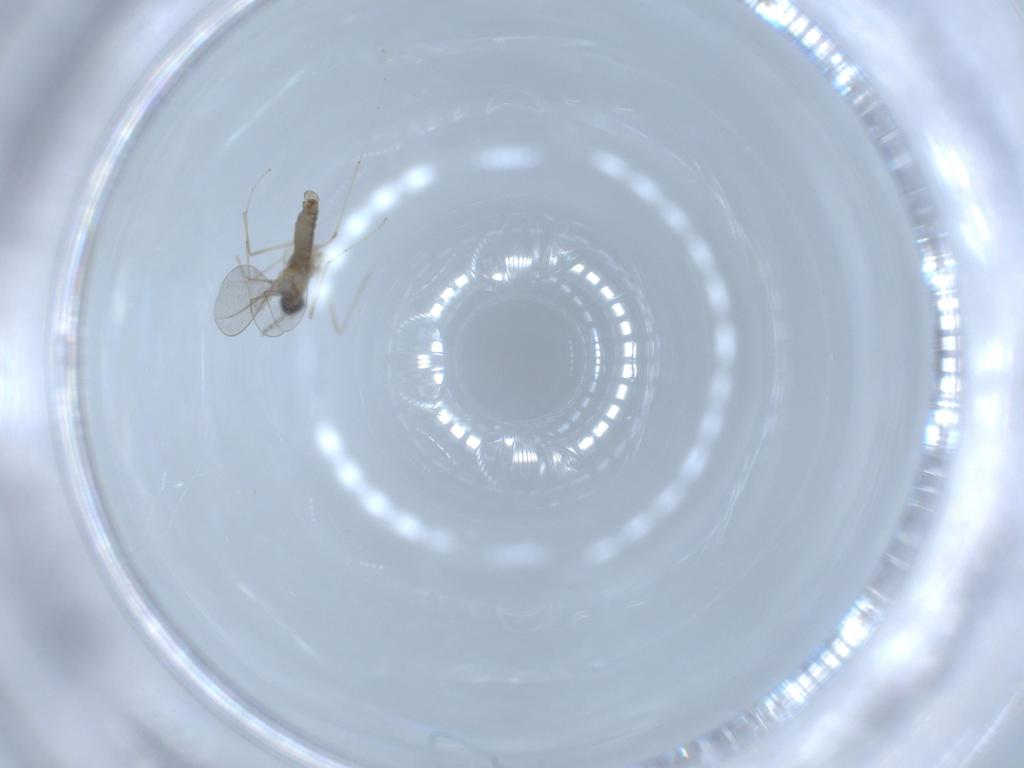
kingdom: Animalia
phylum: Arthropoda
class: Insecta
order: Diptera
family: Cecidomyiidae
